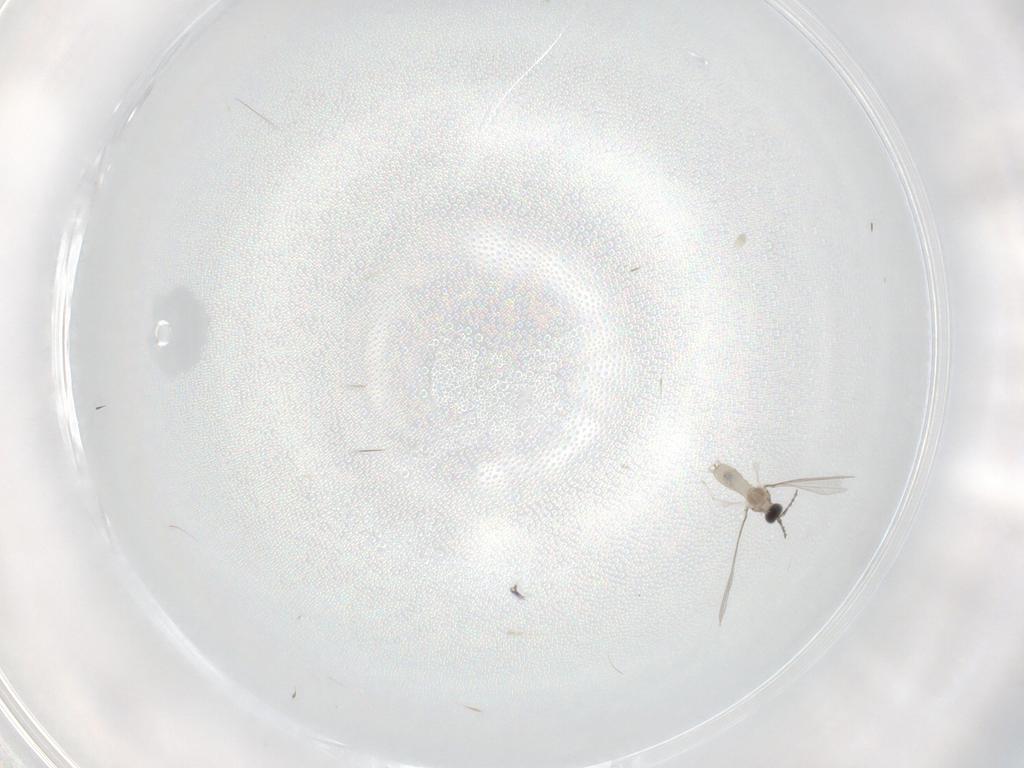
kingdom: Animalia
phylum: Arthropoda
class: Insecta
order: Diptera
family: Cecidomyiidae
